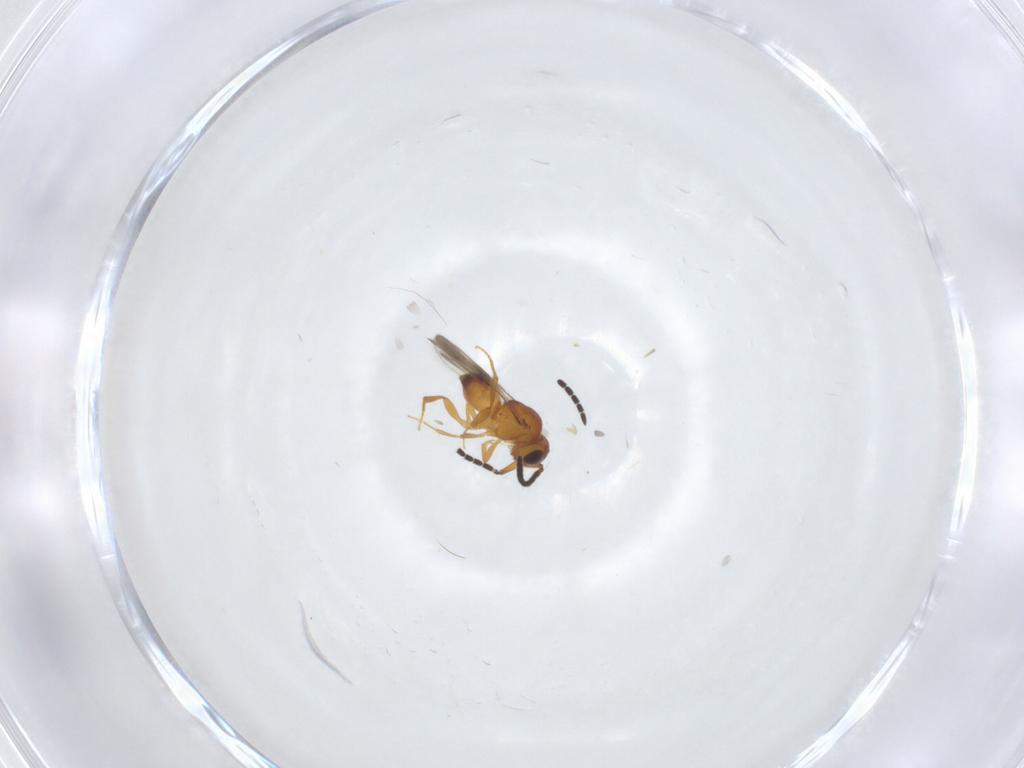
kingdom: Animalia
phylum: Arthropoda
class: Insecta
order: Hymenoptera
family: Ceraphronidae
